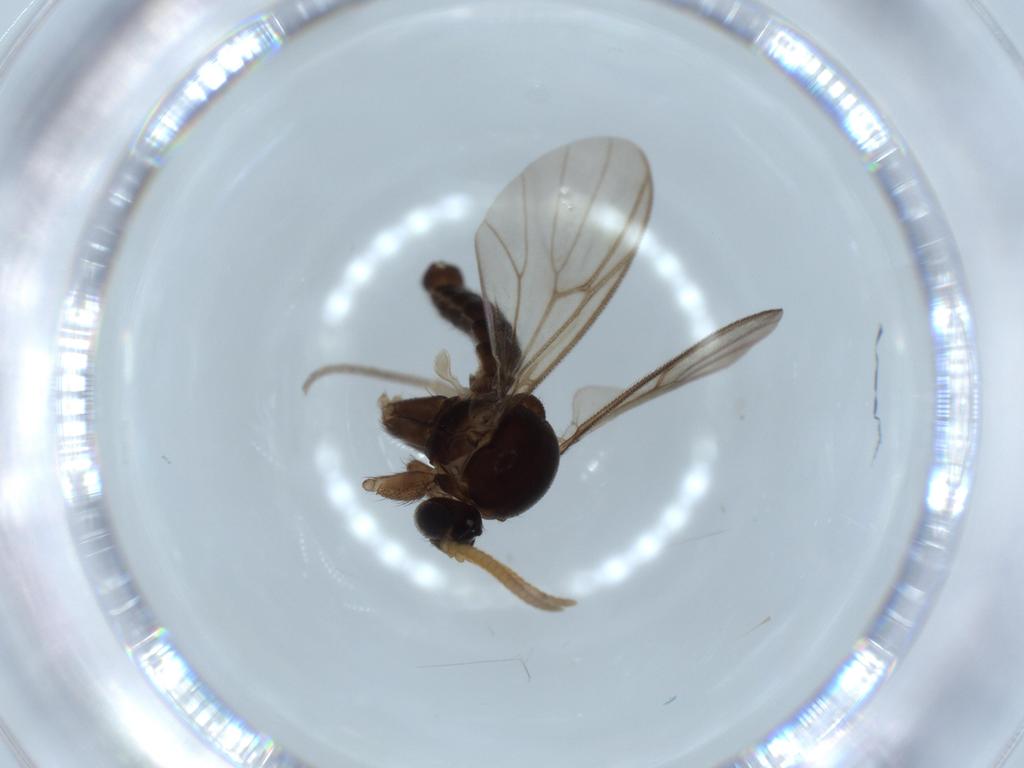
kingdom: Animalia
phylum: Arthropoda
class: Insecta
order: Diptera
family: Mycetophilidae
